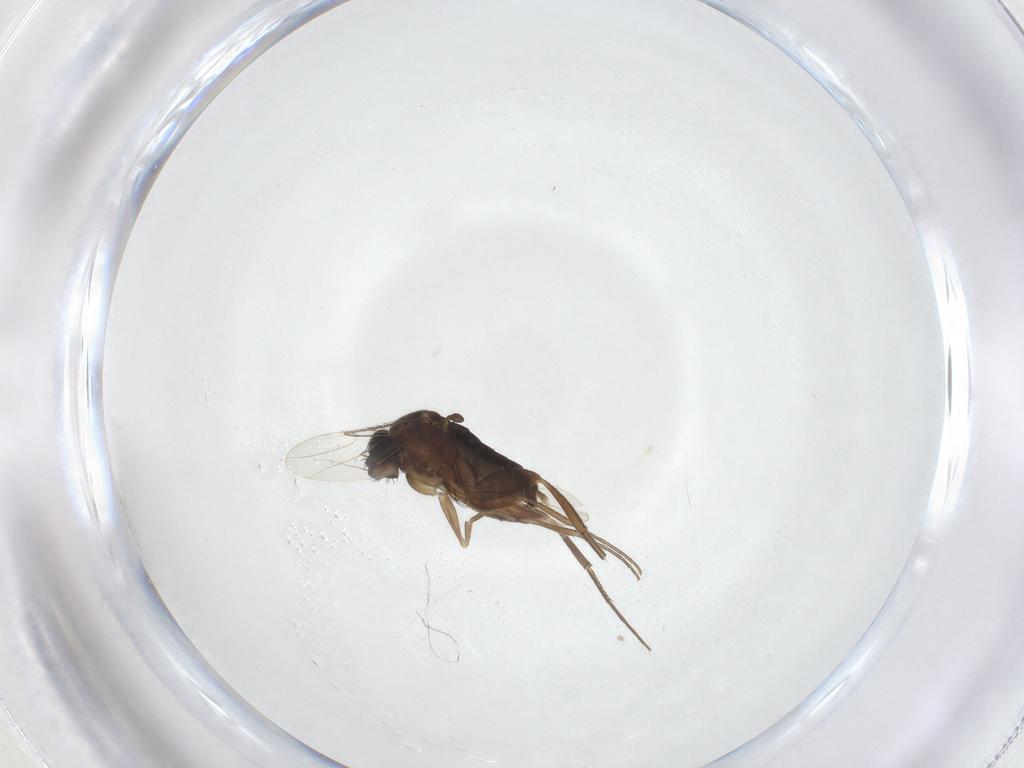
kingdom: Animalia
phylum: Arthropoda
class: Insecta
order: Diptera
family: Phoridae
